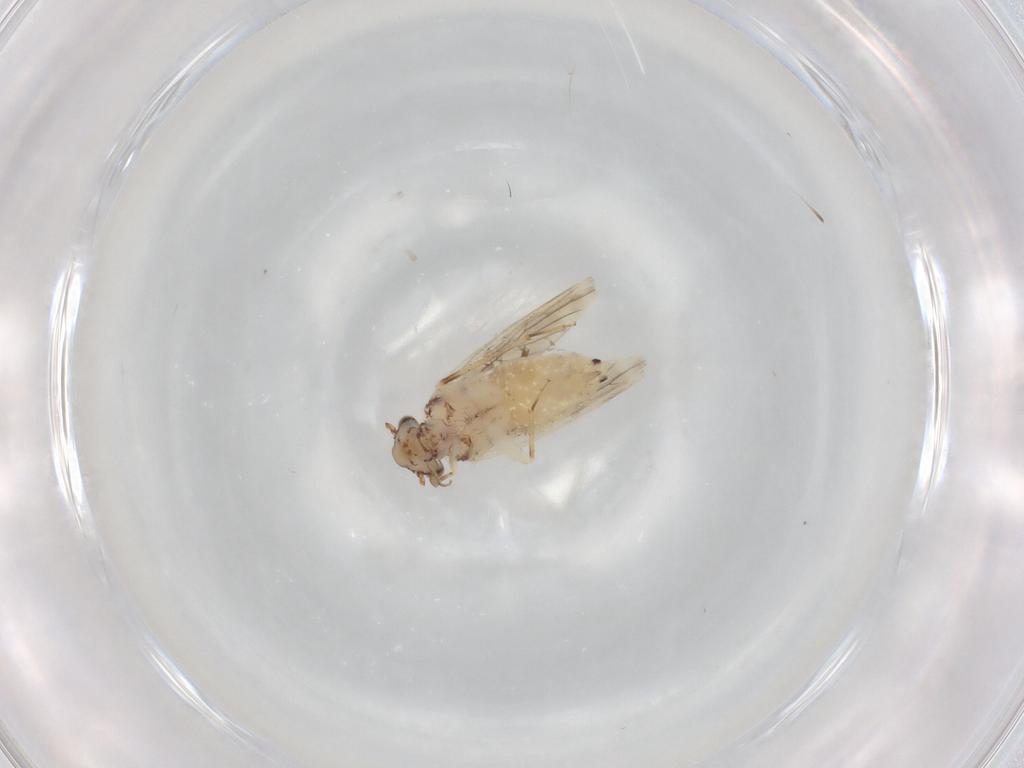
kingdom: Animalia
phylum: Arthropoda
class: Insecta
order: Psocodea
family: Lepidopsocidae
